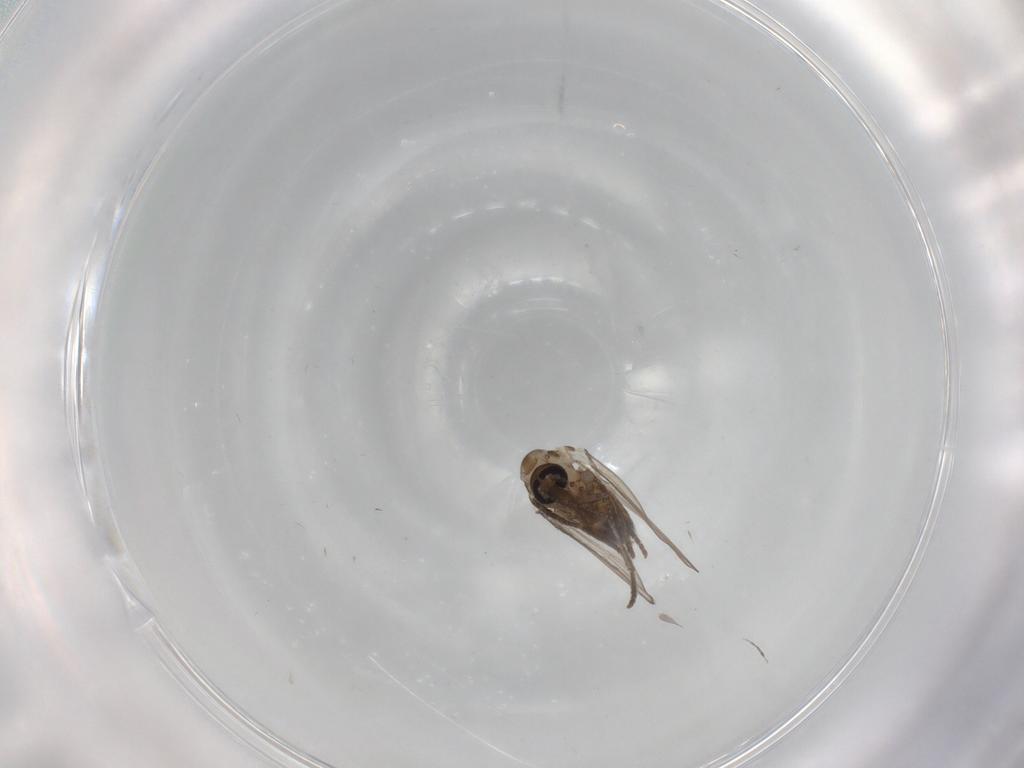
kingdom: Animalia
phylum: Arthropoda
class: Insecta
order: Diptera
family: Cecidomyiidae
